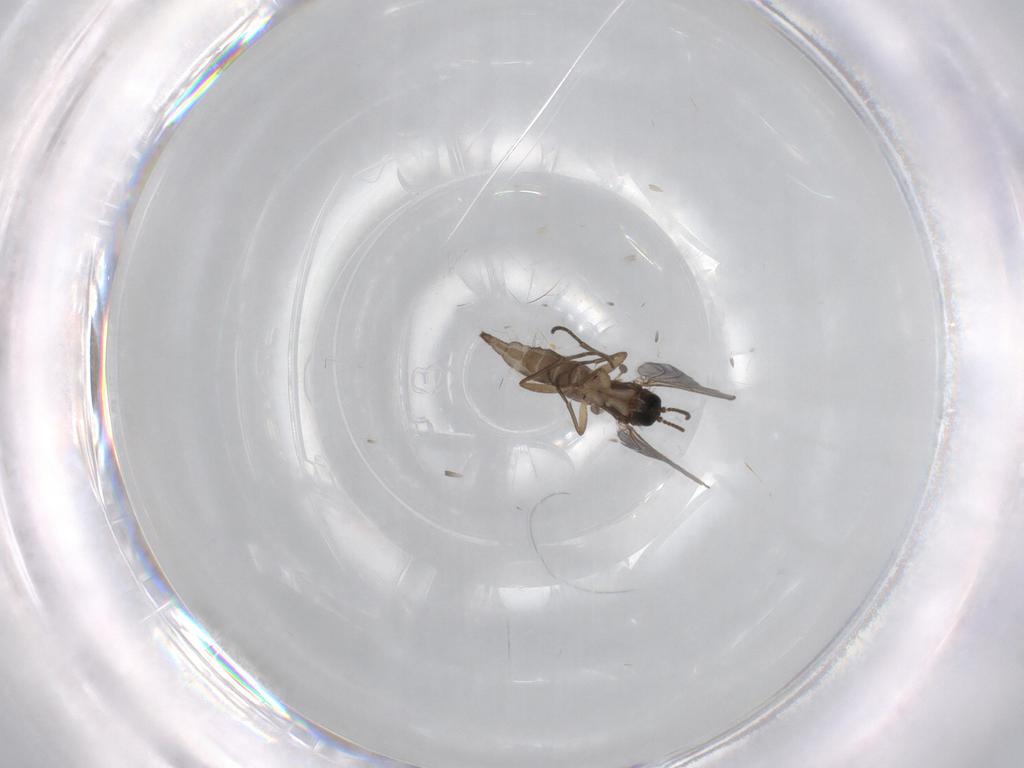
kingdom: Animalia
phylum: Arthropoda
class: Insecta
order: Diptera
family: Sciaridae
